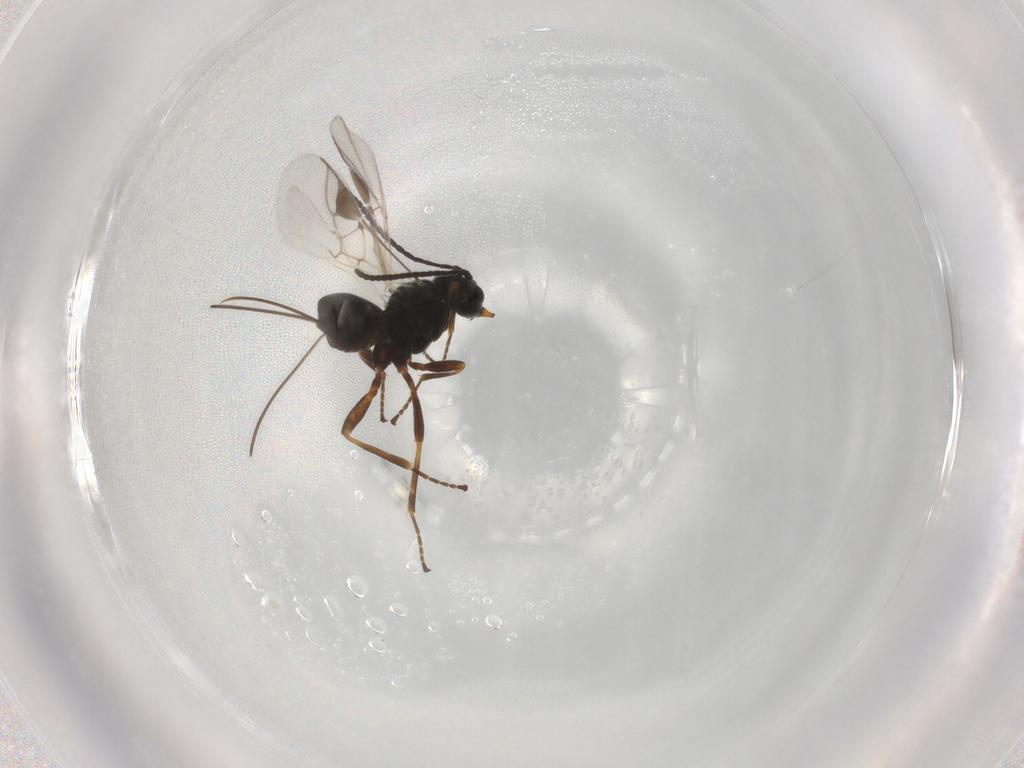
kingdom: Animalia
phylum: Arthropoda
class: Insecta
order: Hymenoptera
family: Braconidae
